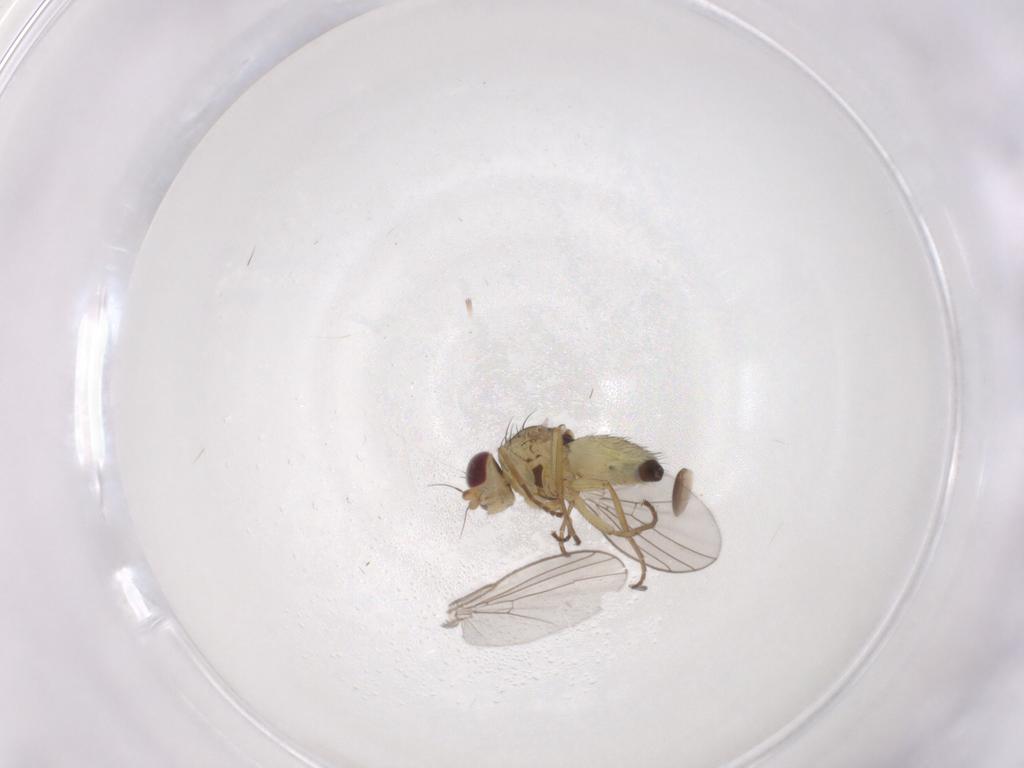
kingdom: Animalia
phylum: Arthropoda
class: Insecta
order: Diptera
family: Agromyzidae
